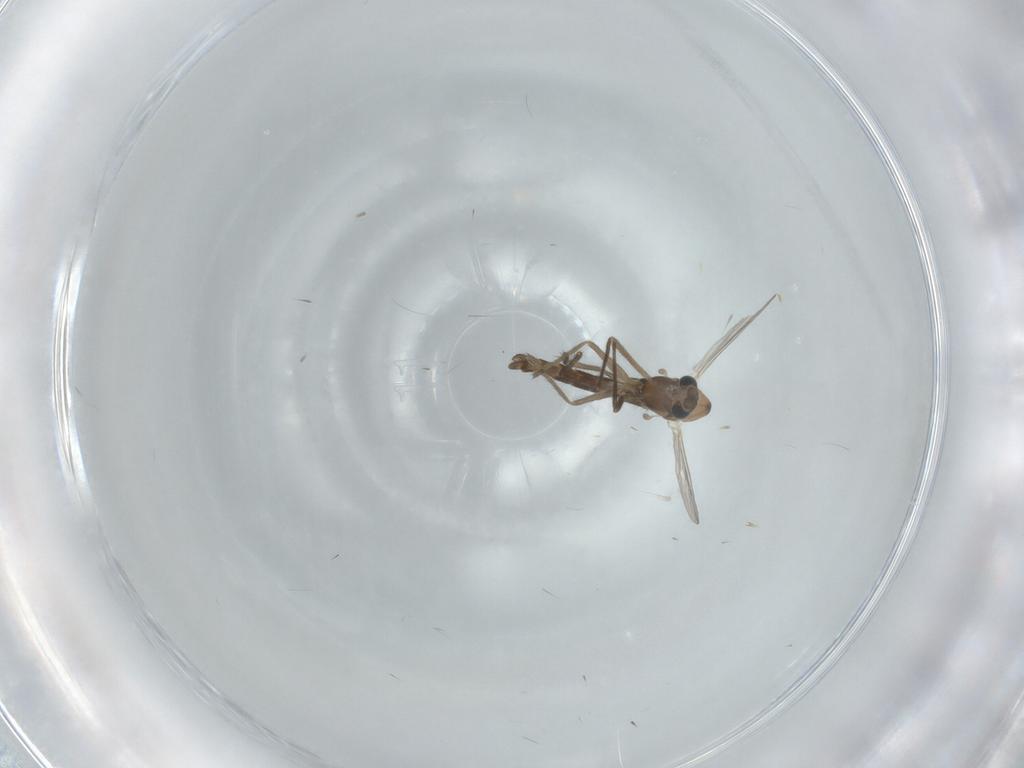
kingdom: Animalia
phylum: Arthropoda
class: Insecta
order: Diptera
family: Chironomidae
